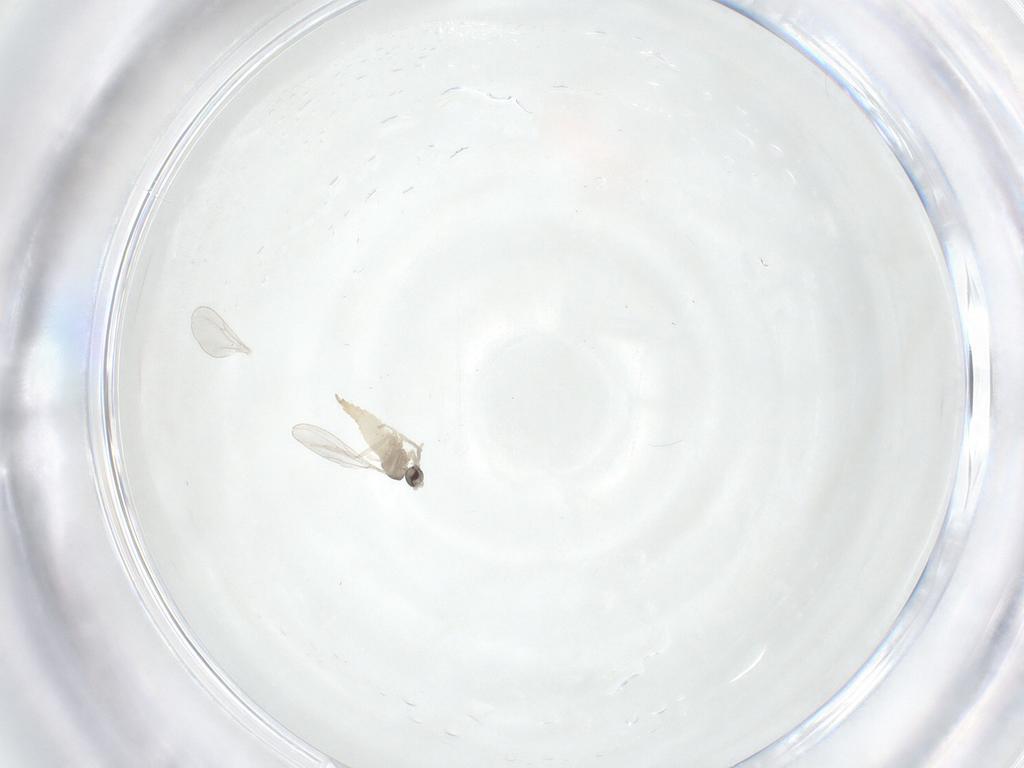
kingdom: Animalia
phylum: Arthropoda
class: Insecta
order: Diptera
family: Cecidomyiidae
